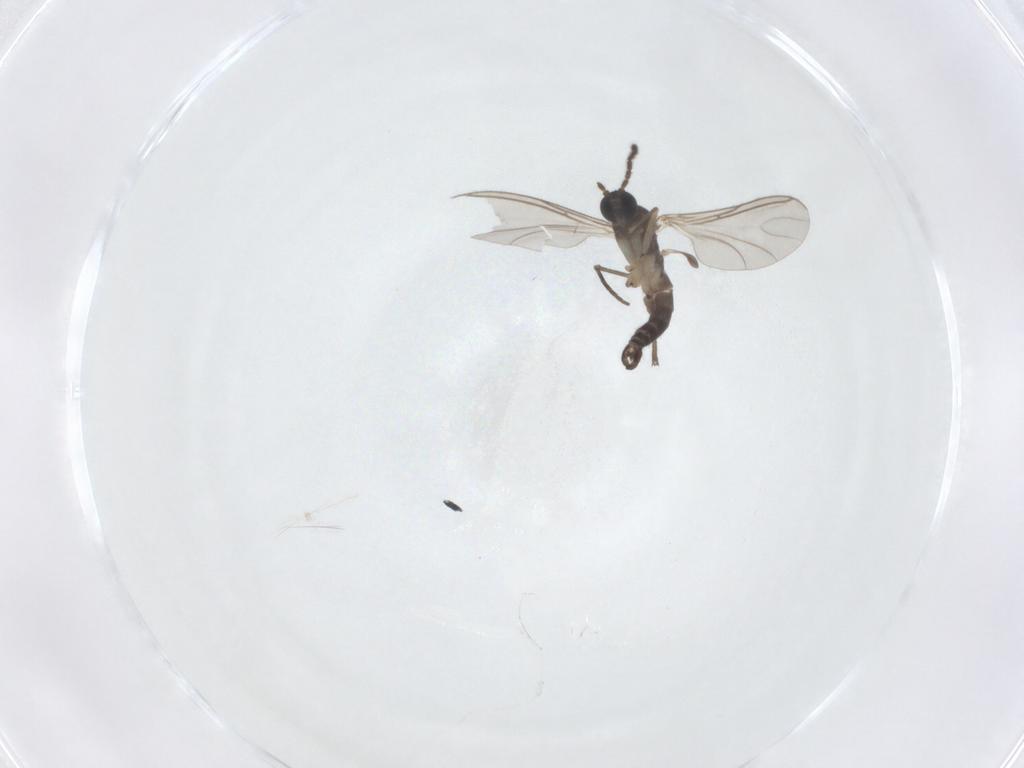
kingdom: Animalia
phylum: Arthropoda
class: Insecta
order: Diptera
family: Sciaridae
